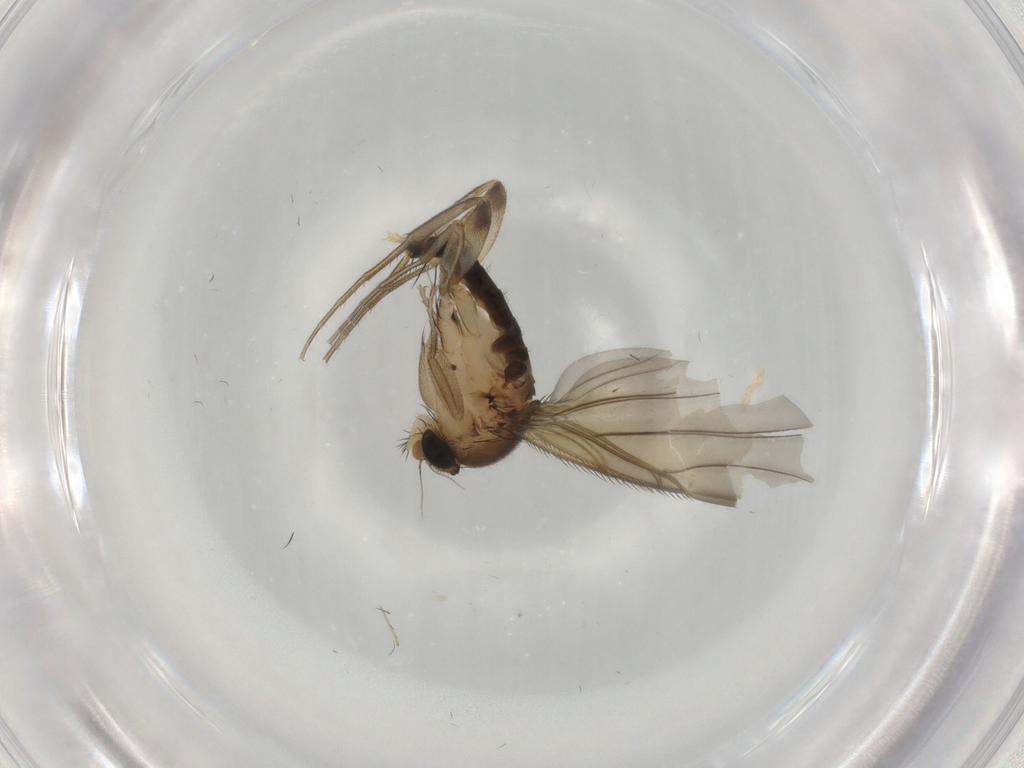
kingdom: Animalia
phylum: Arthropoda
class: Insecta
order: Diptera
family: Phoridae
